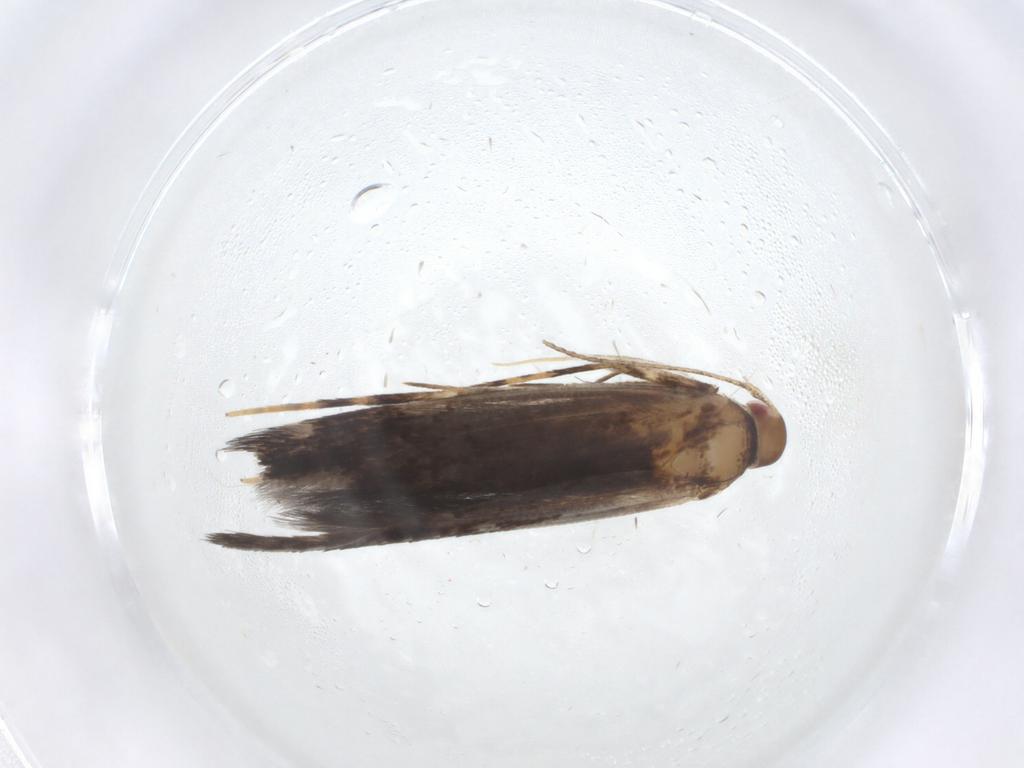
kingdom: Animalia
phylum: Arthropoda
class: Insecta
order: Lepidoptera
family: Cosmopterigidae
